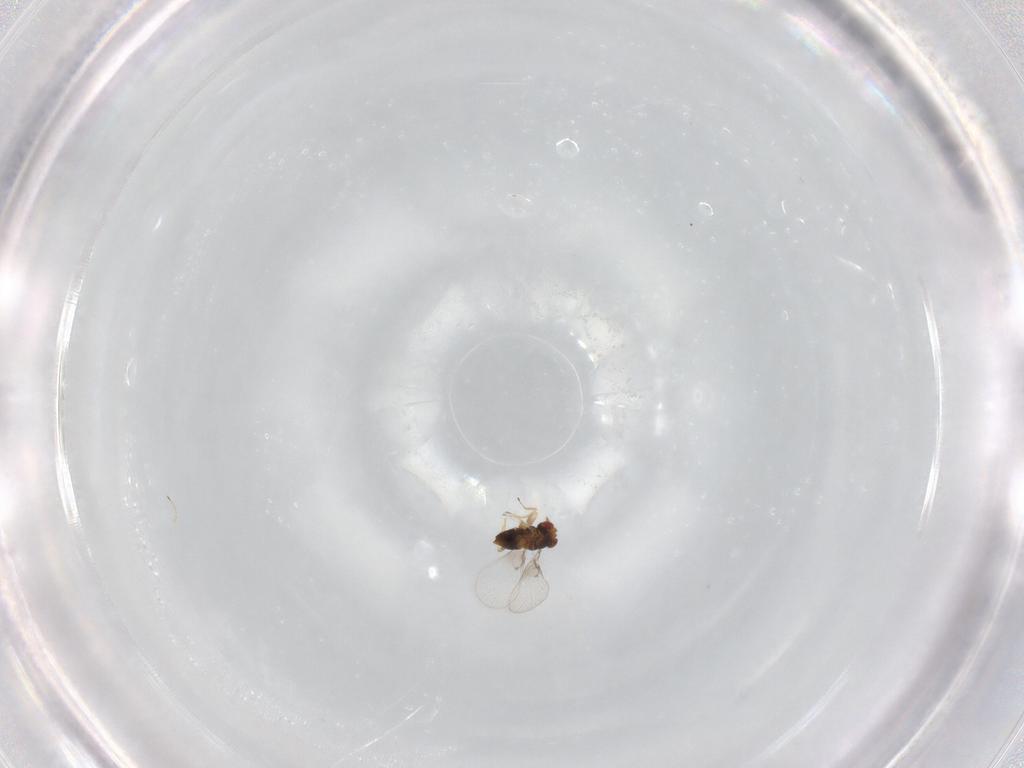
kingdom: Animalia
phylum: Arthropoda
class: Insecta
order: Hymenoptera
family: Trichogrammatidae
